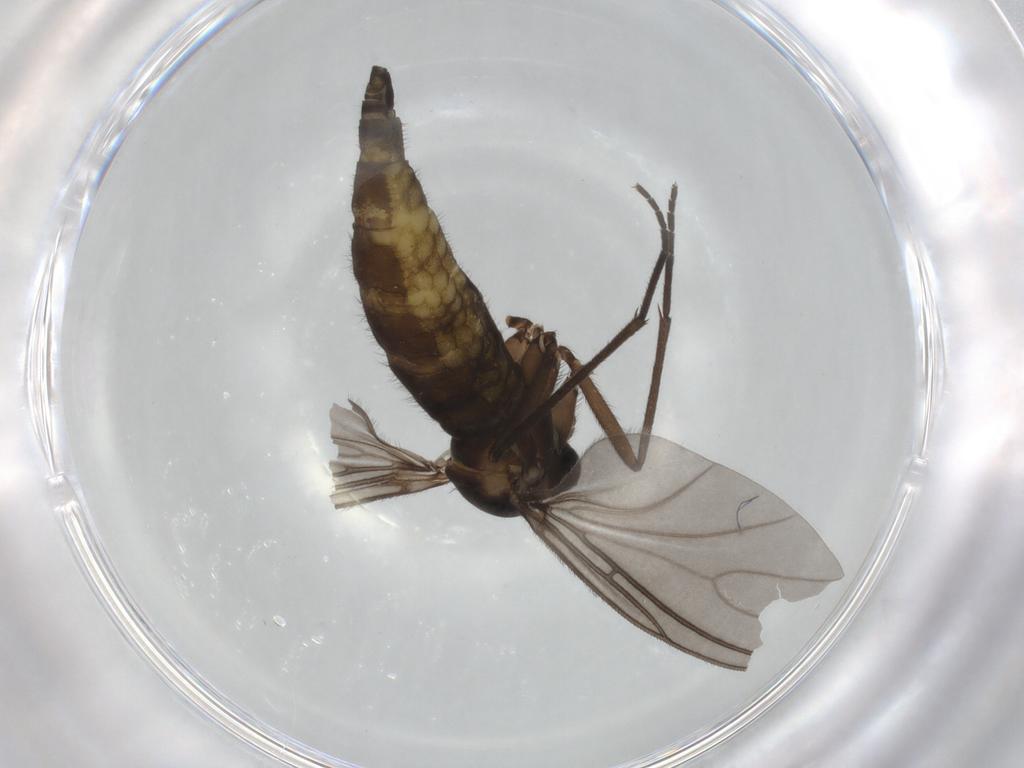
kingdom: Animalia
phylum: Arthropoda
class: Insecta
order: Diptera
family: Sciaridae
